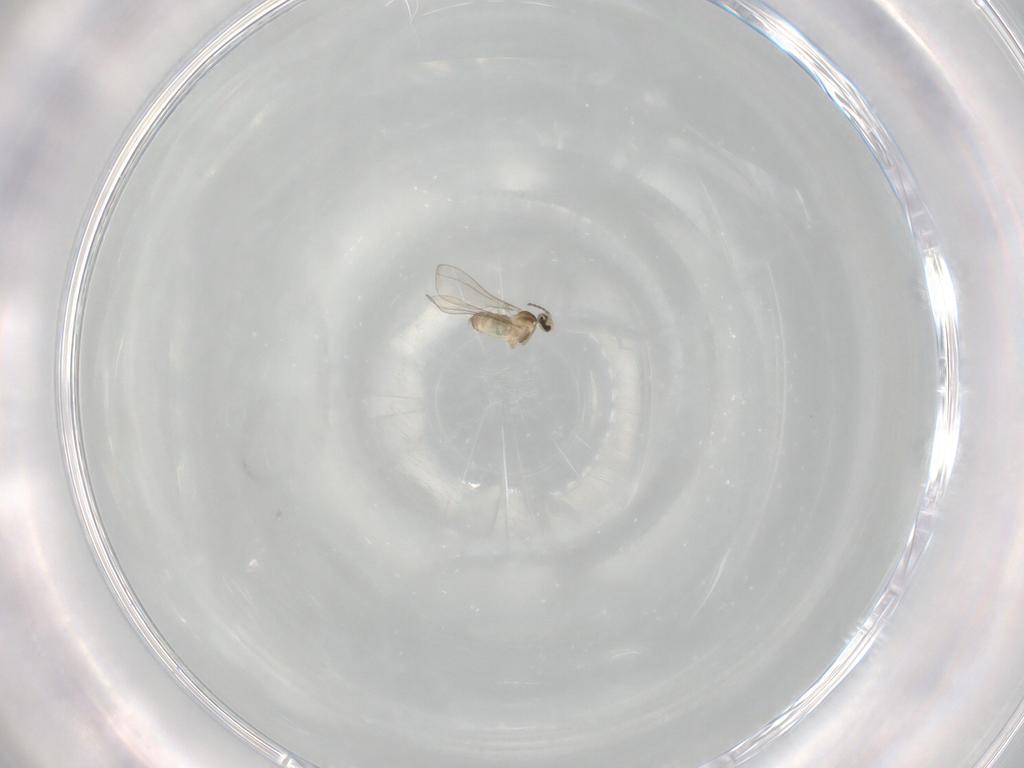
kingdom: Animalia
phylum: Arthropoda
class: Insecta
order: Diptera
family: Cecidomyiidae
